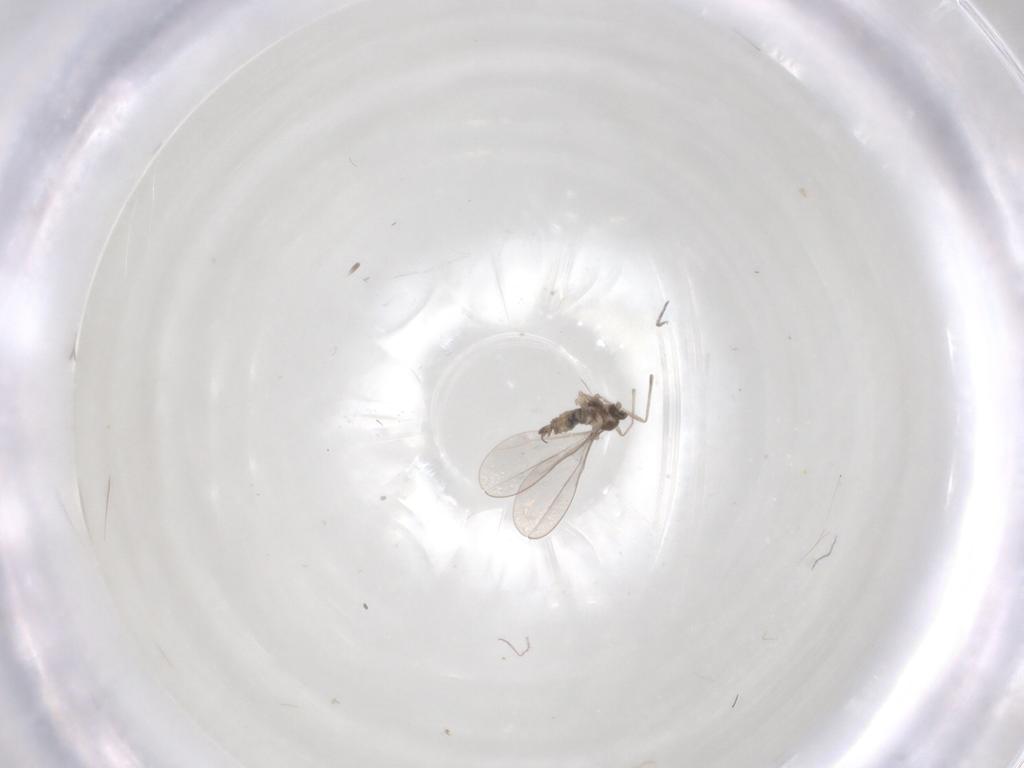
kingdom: Animalia
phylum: Arthropoda
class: Insecta
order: Diptera
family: Cecidomyiidae
